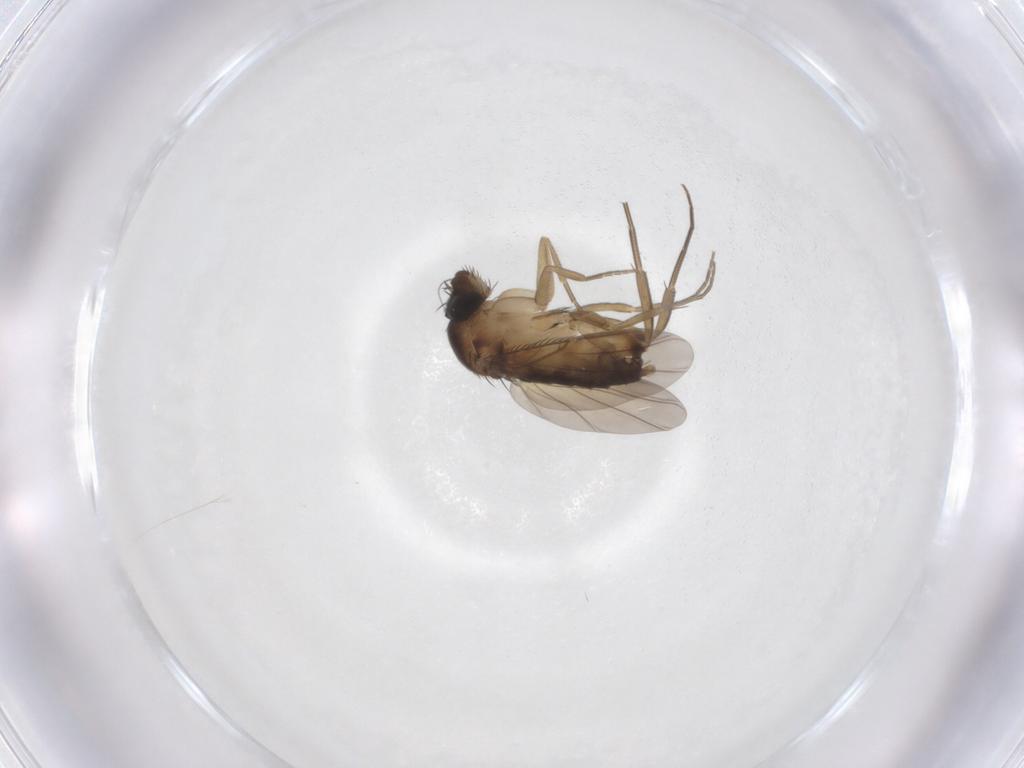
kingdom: Animalia
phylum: Arthropoda
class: Insecta
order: Diptera
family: Phoridae
